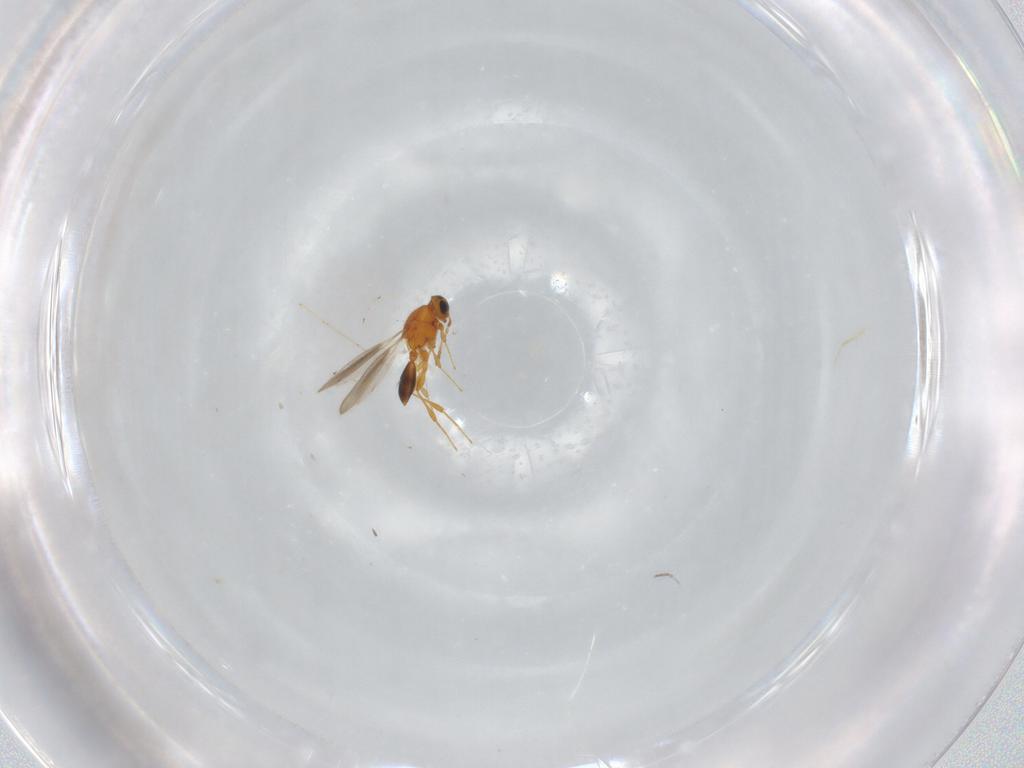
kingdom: Animalia
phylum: Arthropoda
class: Insecta
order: Hymenoptera
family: Platygastridae
